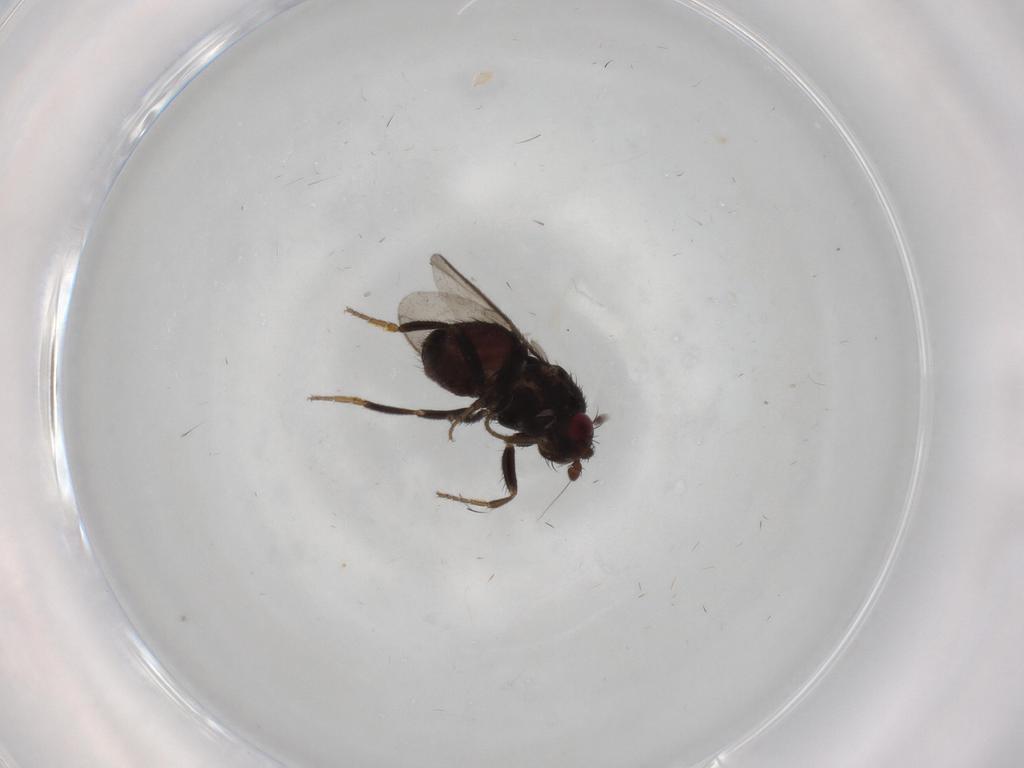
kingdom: Animalia
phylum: Arthropoda
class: Insecta
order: Diptera
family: Sphaeroceridae
